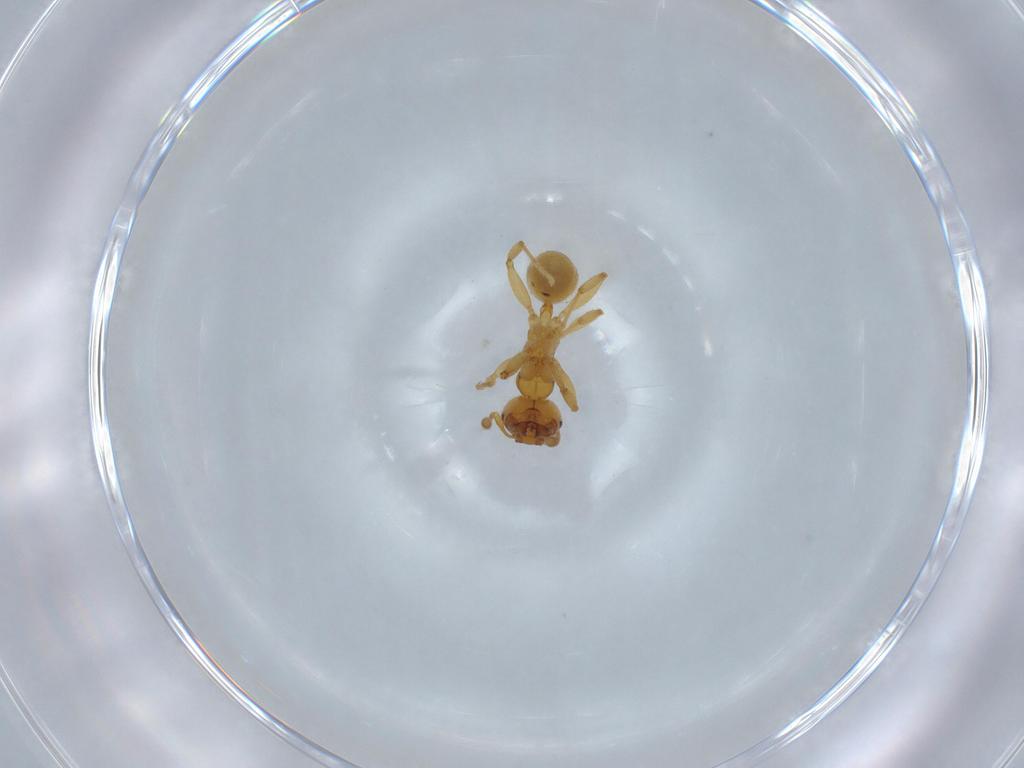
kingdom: Animalia
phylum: Arthropoda
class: Insecta
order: Hymenoptera
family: Formicidae
